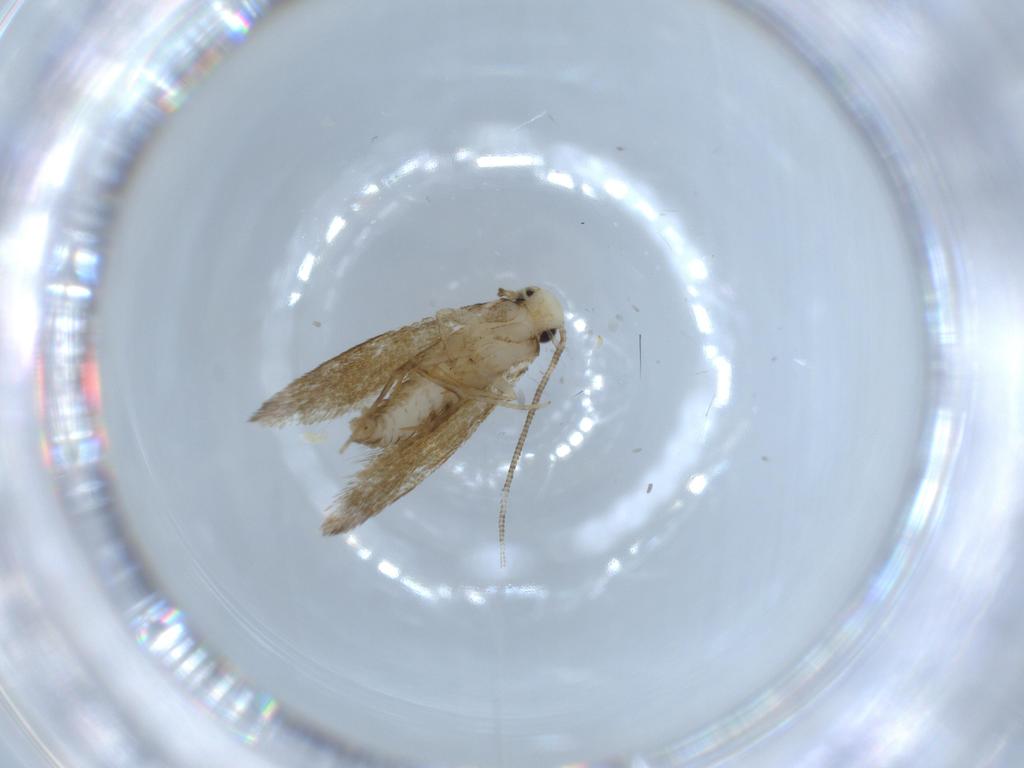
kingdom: Animalia
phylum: Arthropoda
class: Insecta
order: Lepidoptera
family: Tineidae
